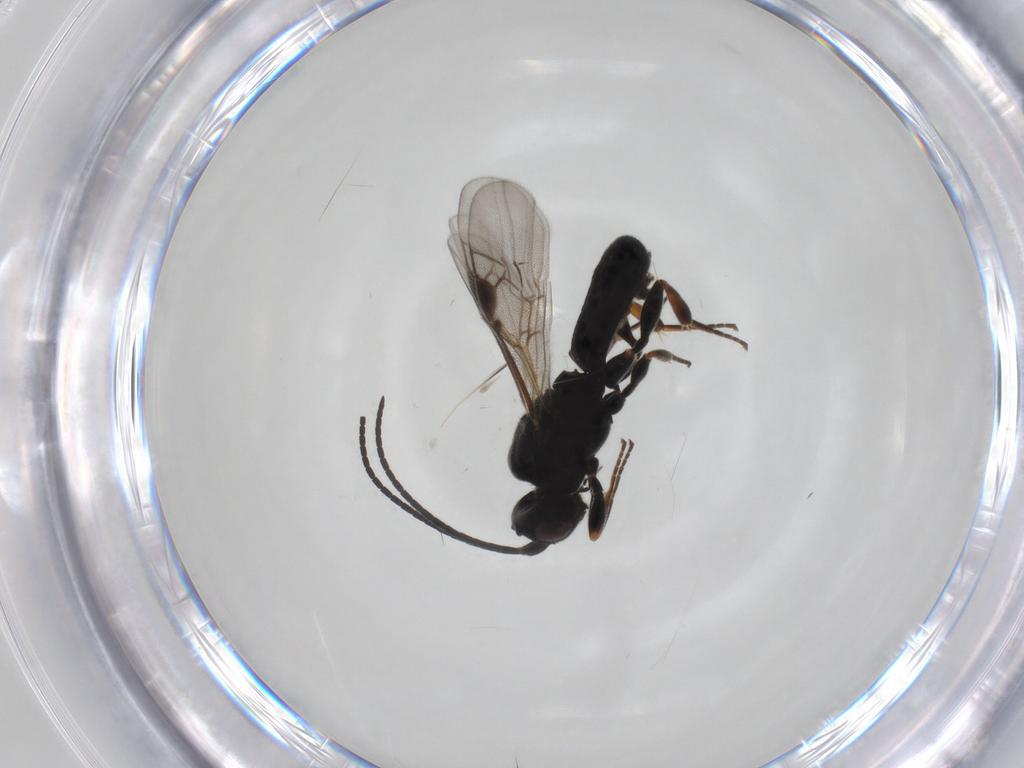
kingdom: Animalia
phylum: Arthropoda
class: Insecta
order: Hymenoptera
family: Braconidae
